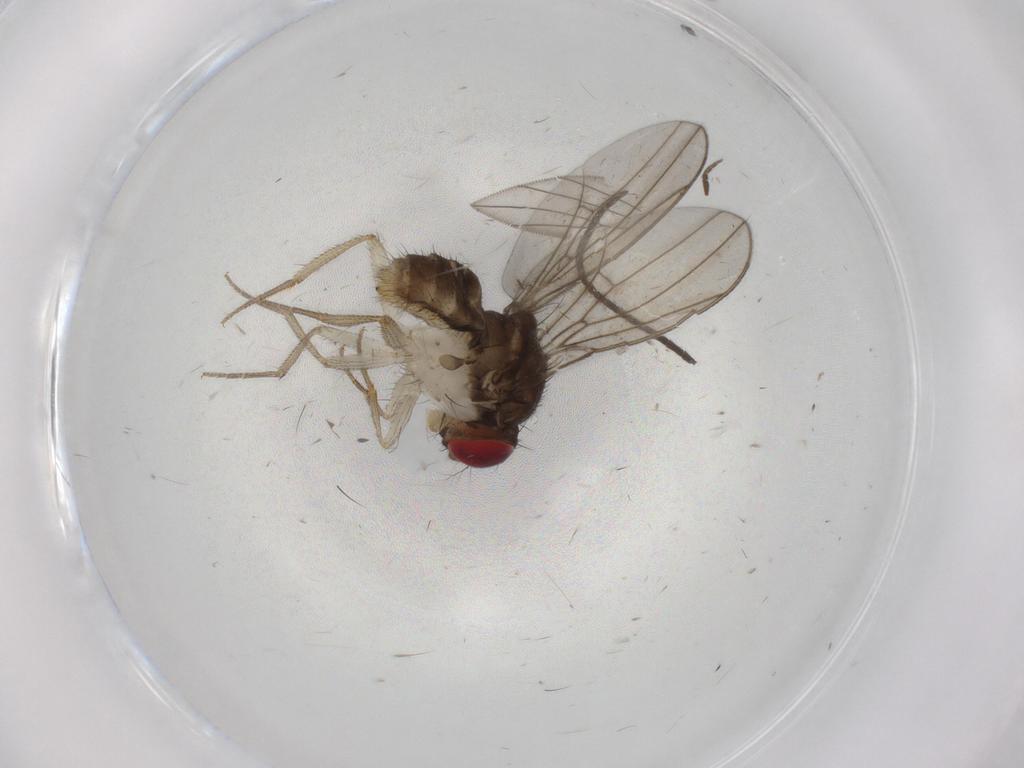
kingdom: Animalia
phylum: Arthropoda
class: Insecta
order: Diptera
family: Drosophilidae
